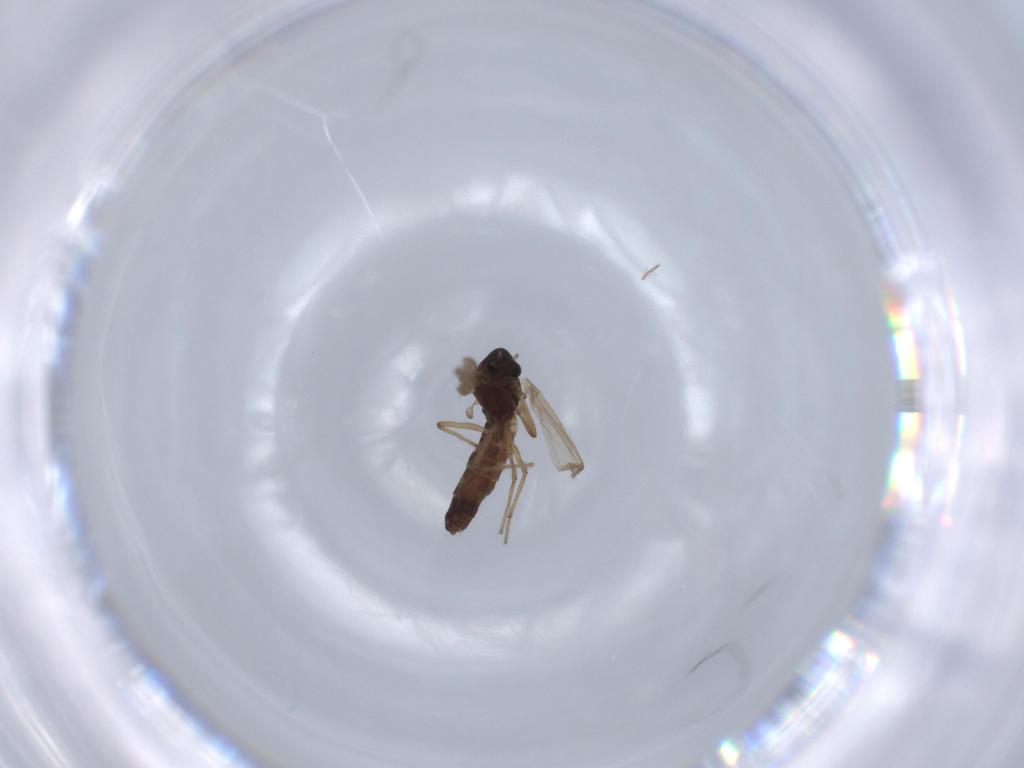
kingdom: Animalia
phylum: Arthropoda
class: Insecta
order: Diptera
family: Chironomidae
